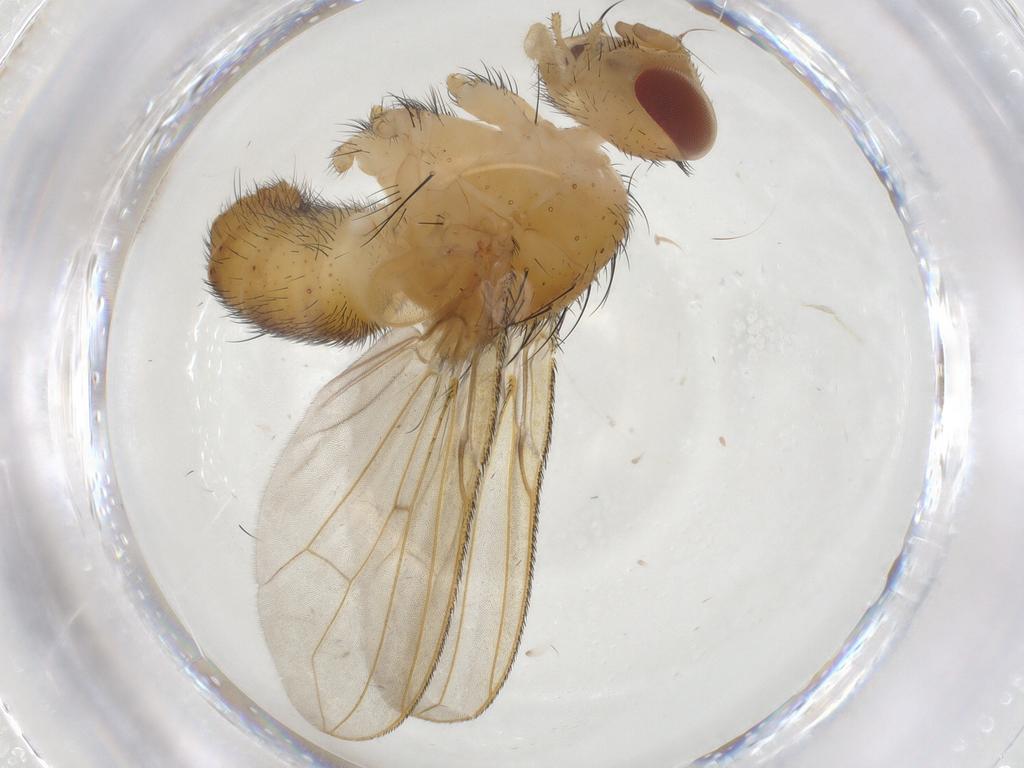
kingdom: Animalia
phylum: Arthropoda
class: Insecta
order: Diptera
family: Tachinidae
